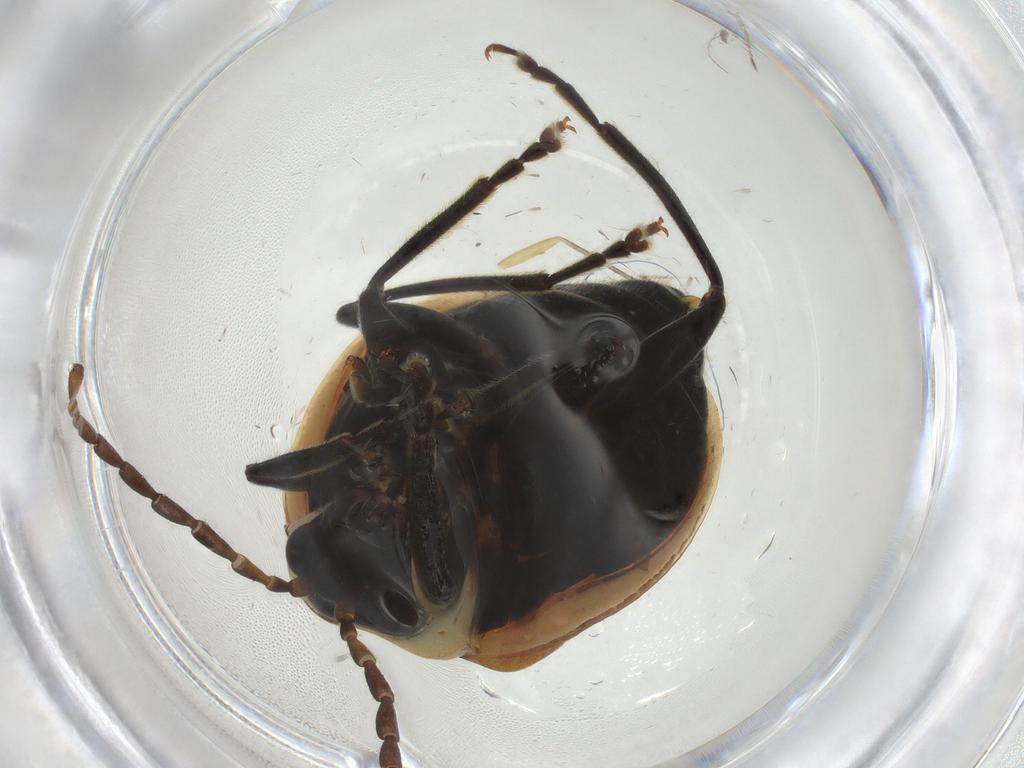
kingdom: Animalia
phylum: Arthropoda
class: Insecta
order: Coleoptera
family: Chrysomelidae
